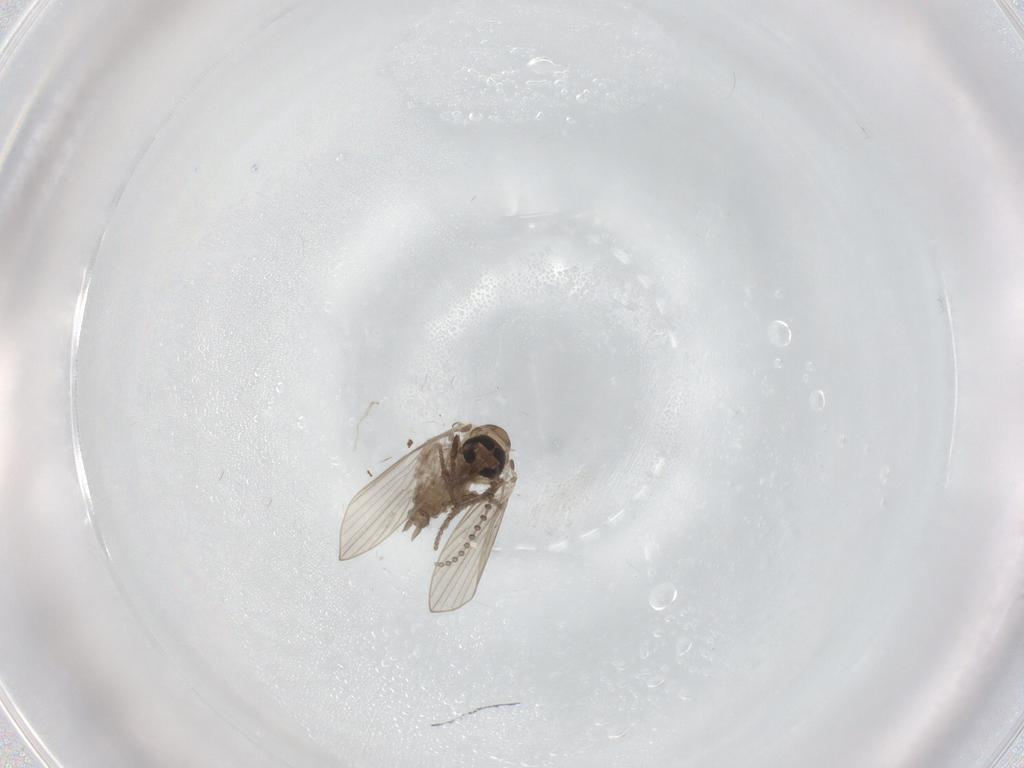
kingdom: Animalia
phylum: Arthropoda
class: Insecta
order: Diptera
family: Psychodidae
